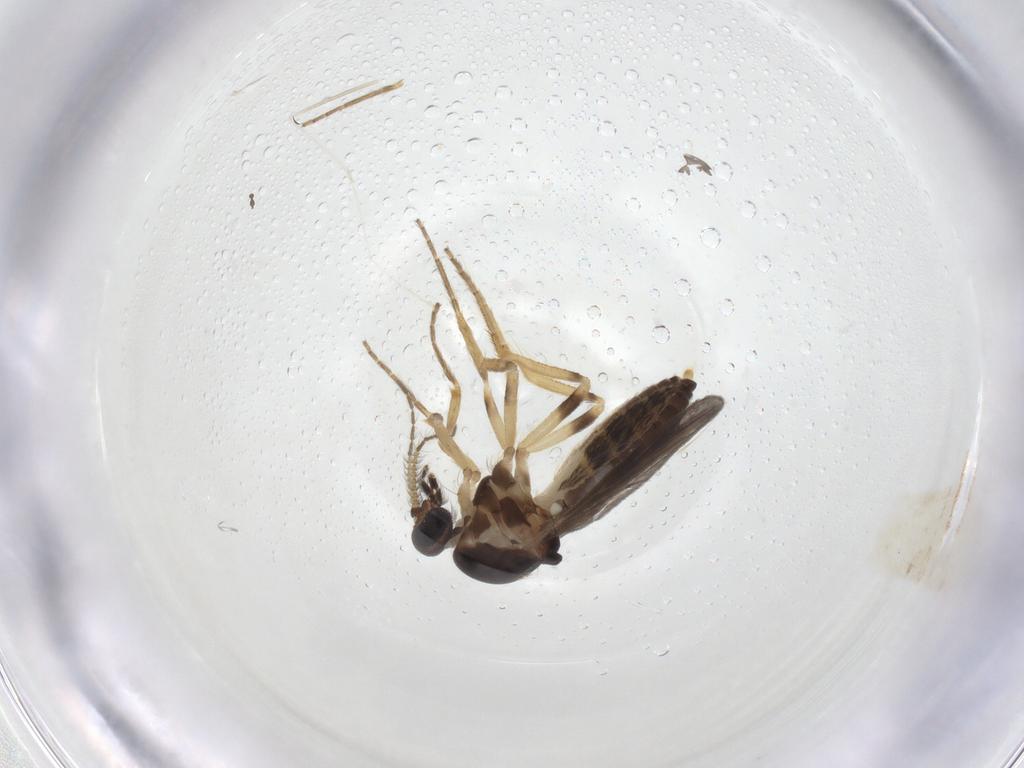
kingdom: Animalia
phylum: Arthropoda
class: Insecta
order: Diptera
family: Ceratopogonidae
